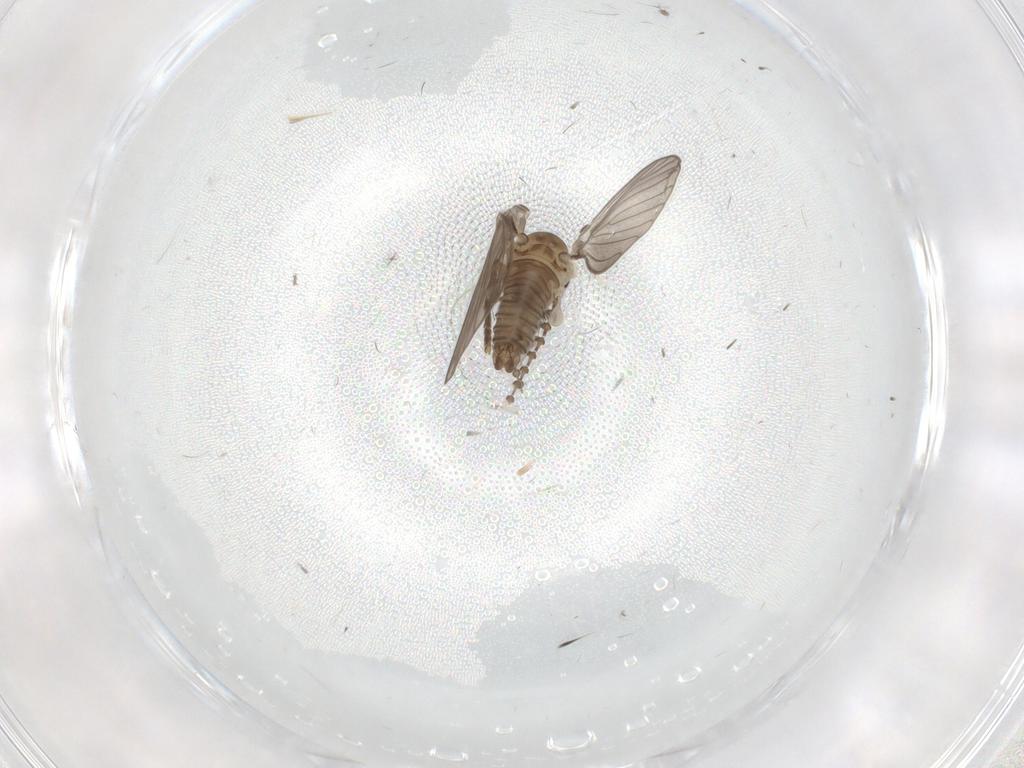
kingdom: Animalia
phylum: Arthropoda
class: Insecta
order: Diptera
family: Psychodidae
